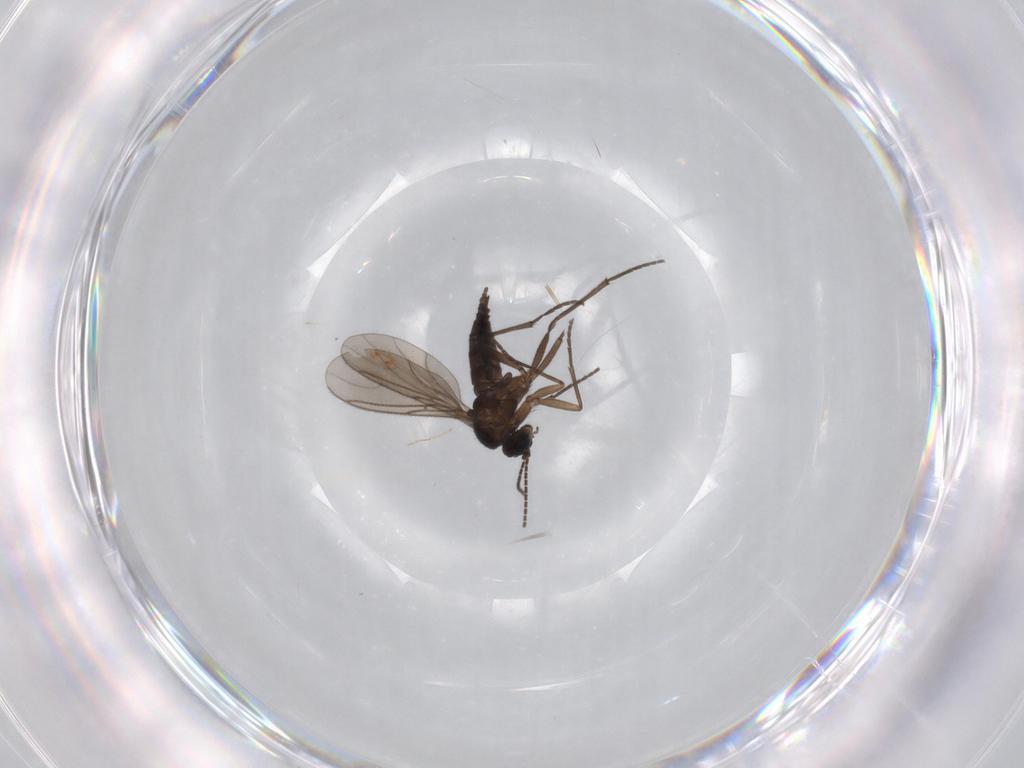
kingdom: Animalia
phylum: Arthropoda
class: Insecta
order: Diptera
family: Sciaridae
